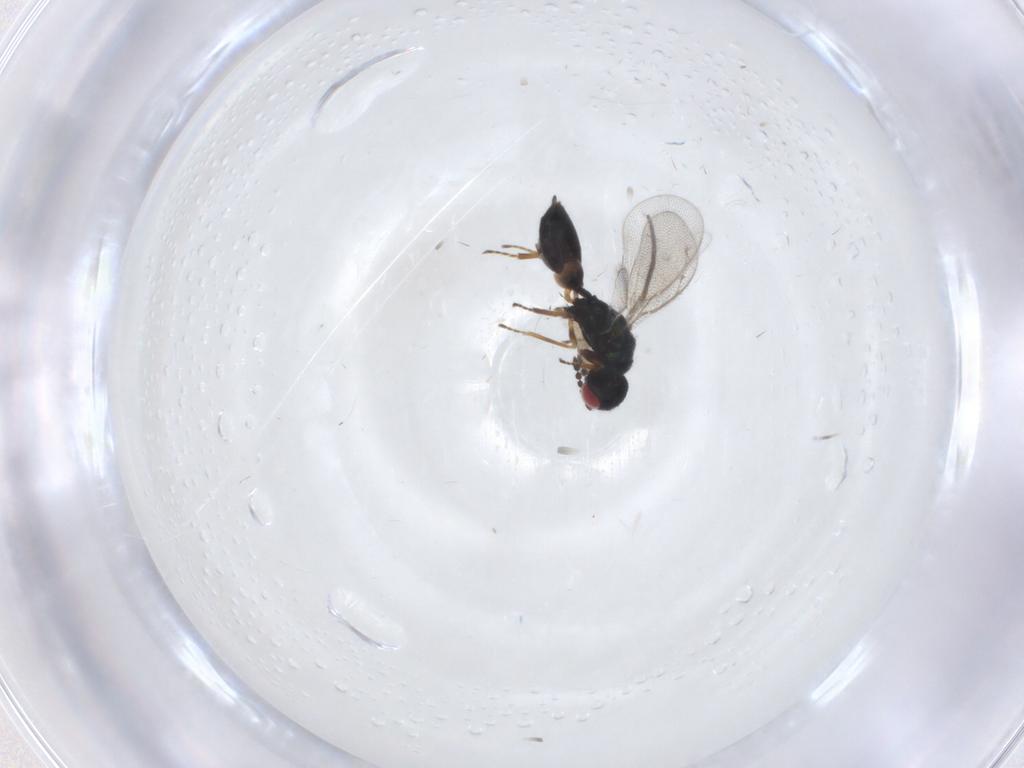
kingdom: Animalia
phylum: Arthropoda
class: Insecta
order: Hymenoptera
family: Eulophidae
